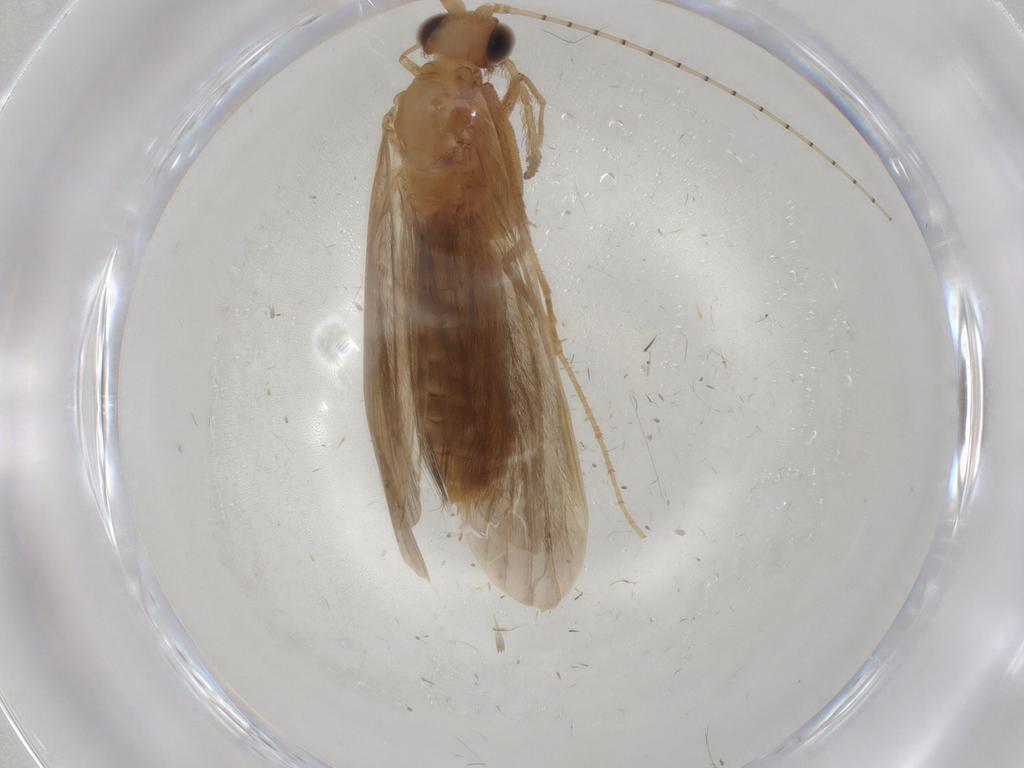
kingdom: Animalia
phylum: Arthropoda
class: Insecta
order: Trichoptera
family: Leptoceridae
